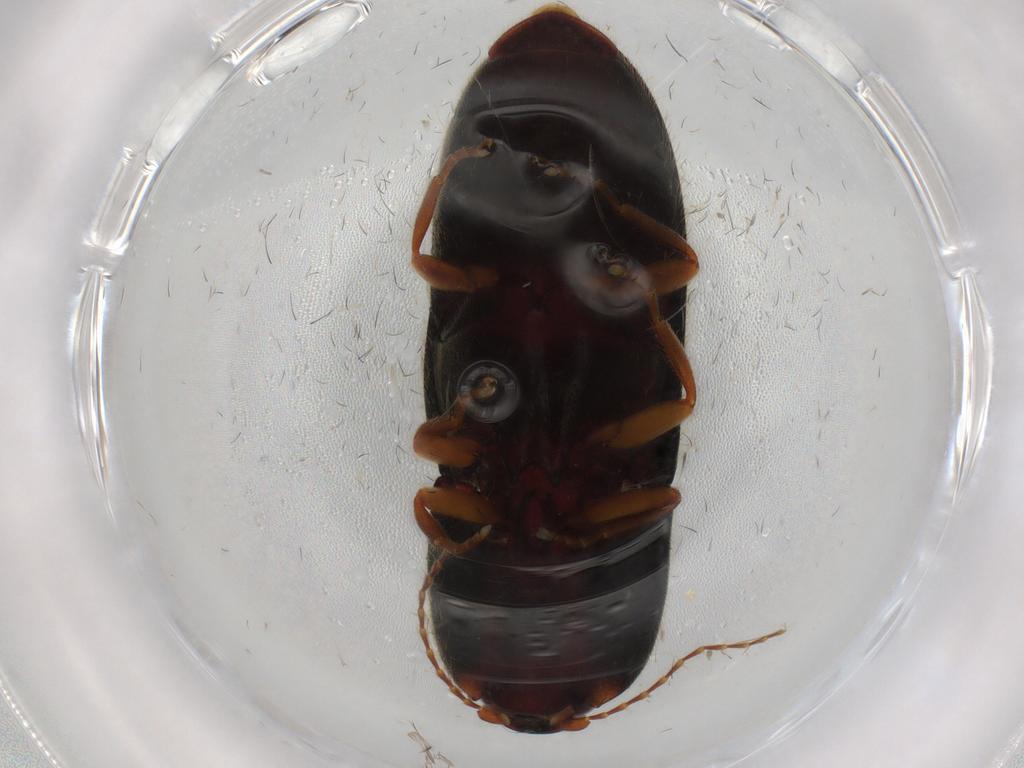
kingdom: Animalia
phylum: Arthropoda
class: Insecta
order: Coleoptera
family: Elateridae
